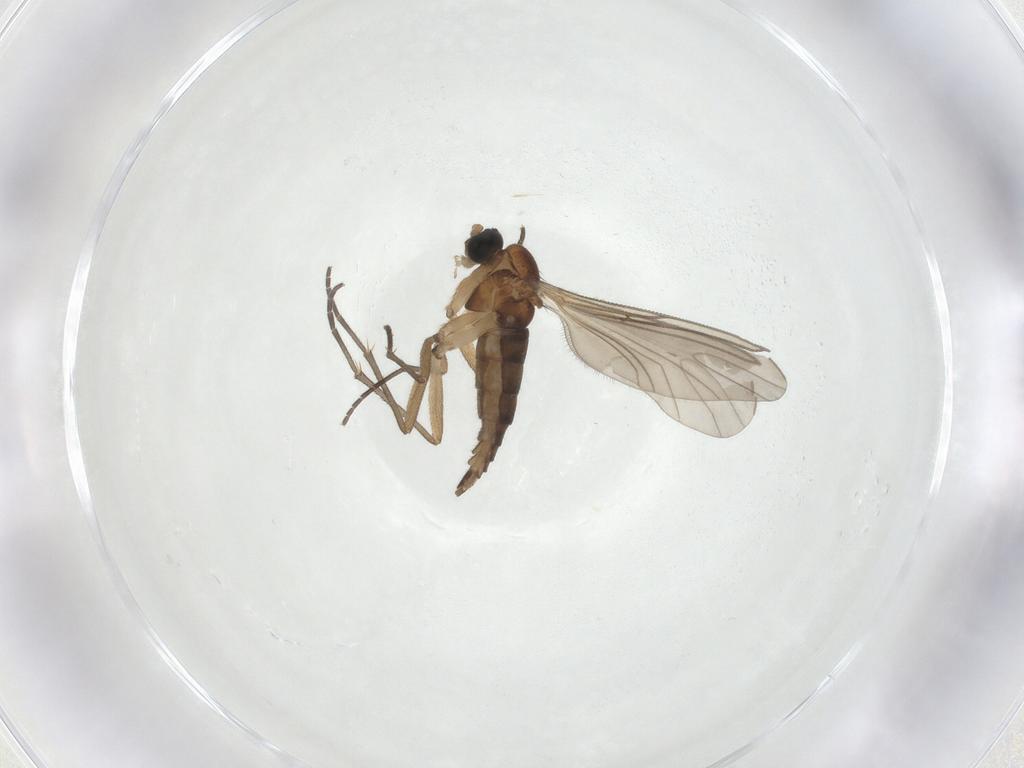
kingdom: Animalia
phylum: Arthropoda
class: Insecta
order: Diptera
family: Sciaridae
